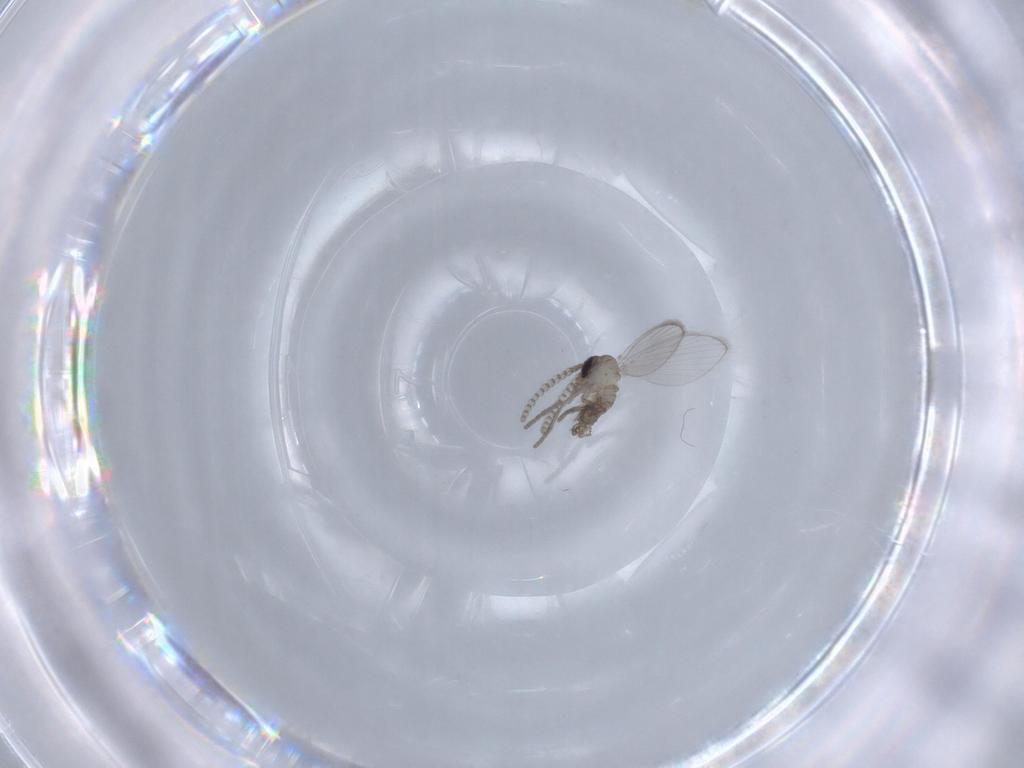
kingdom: Animalia
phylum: Arthropoda
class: Insecta
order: Diptera
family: Psychodidae
